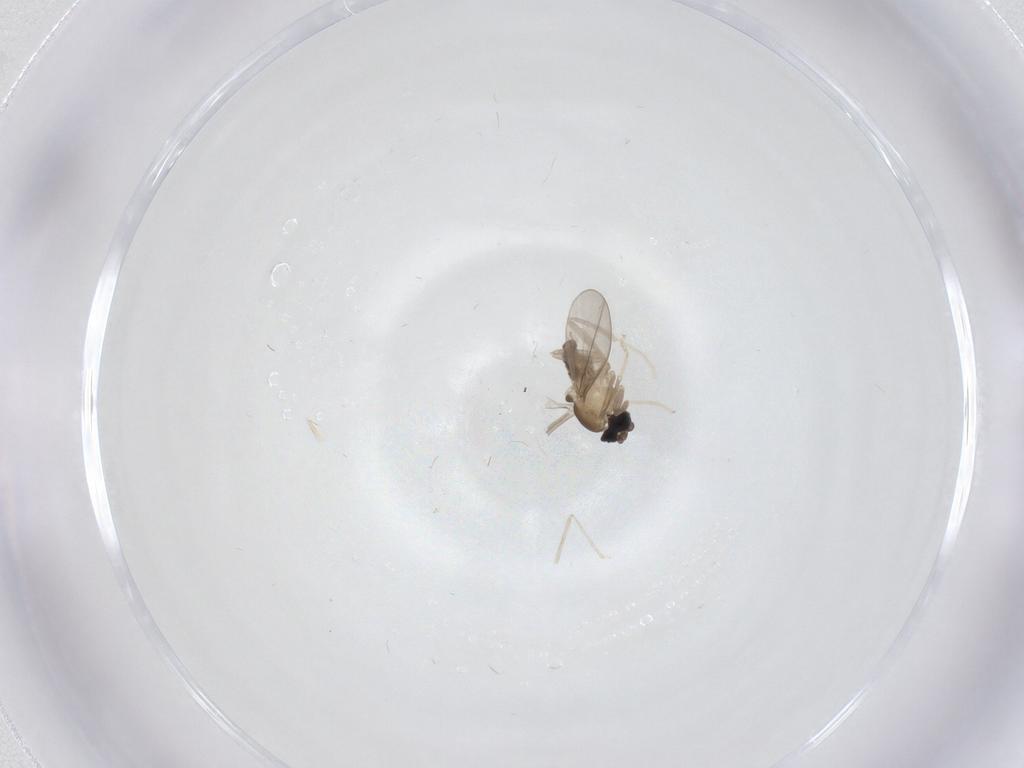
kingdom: Animalia
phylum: Arthropoda
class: Insecta
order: Diptera
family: Cecidomyiidae
